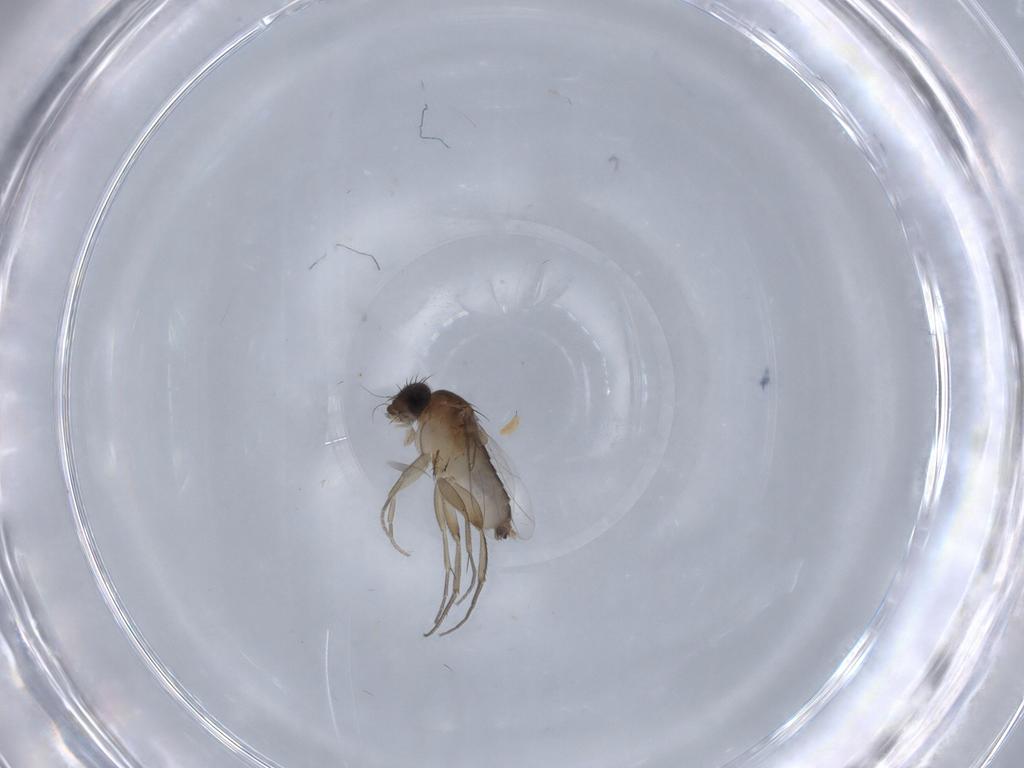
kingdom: Animalia
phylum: Arthropoda
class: Insecta
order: Diptera
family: Phoridae
